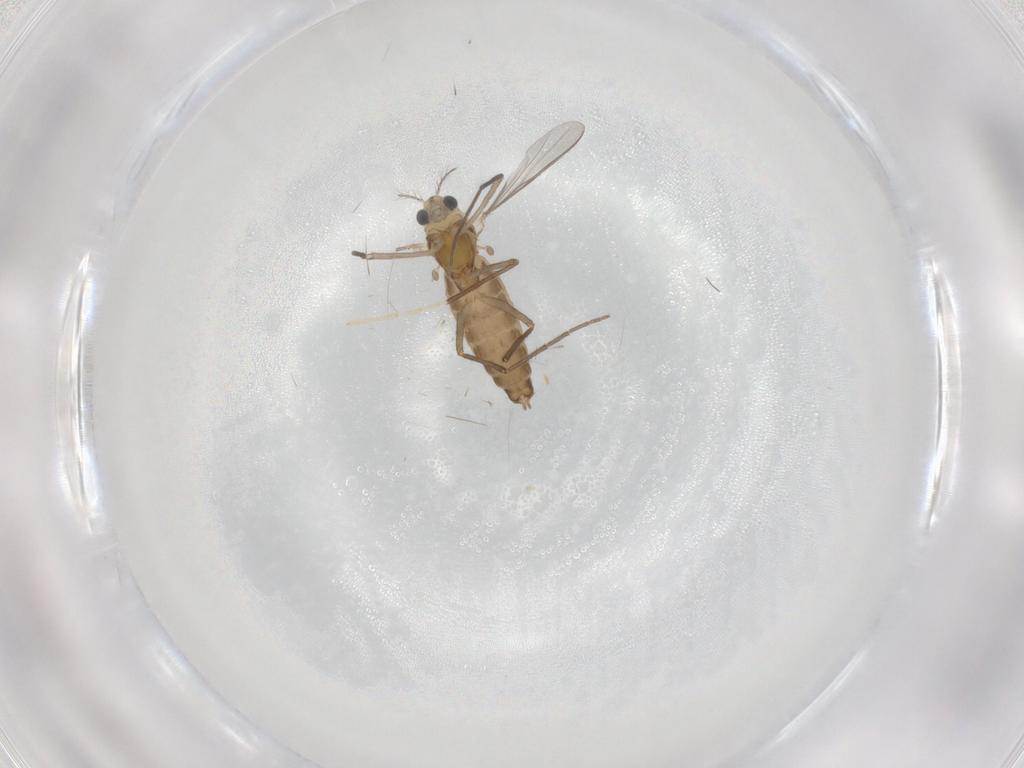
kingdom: Animalia
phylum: Arthropoda
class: Insecta
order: Diptera
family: Chironomidae
